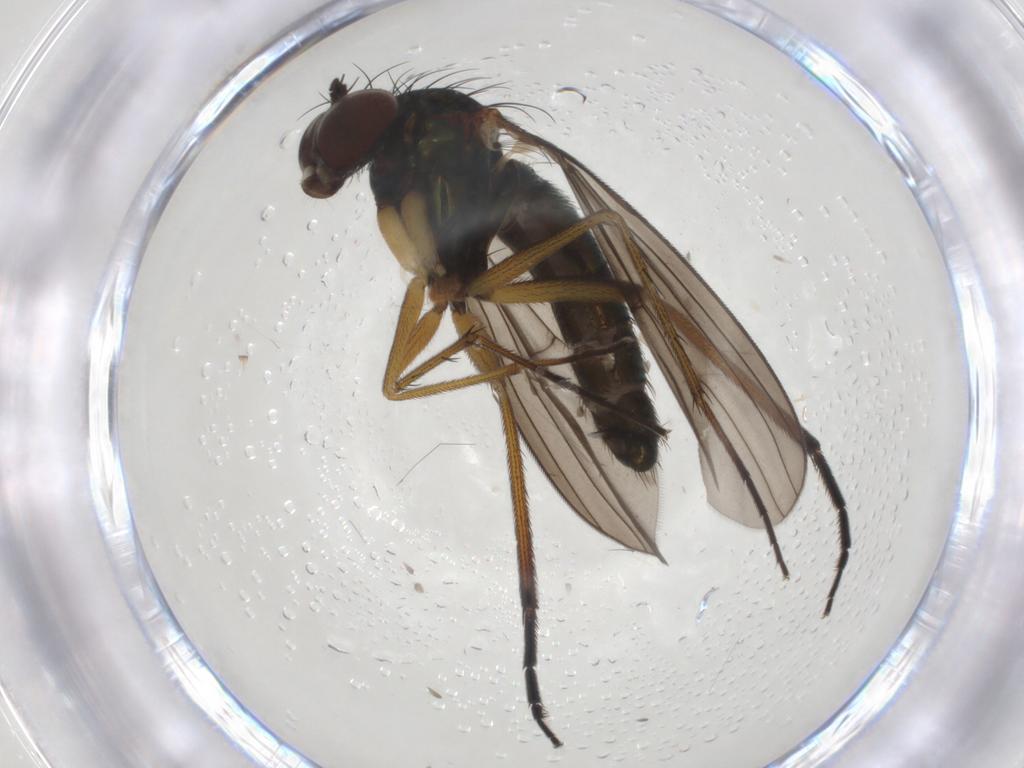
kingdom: Animalia
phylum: Arthropoda
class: Insecta
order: Diptera
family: Dolichopodidae
